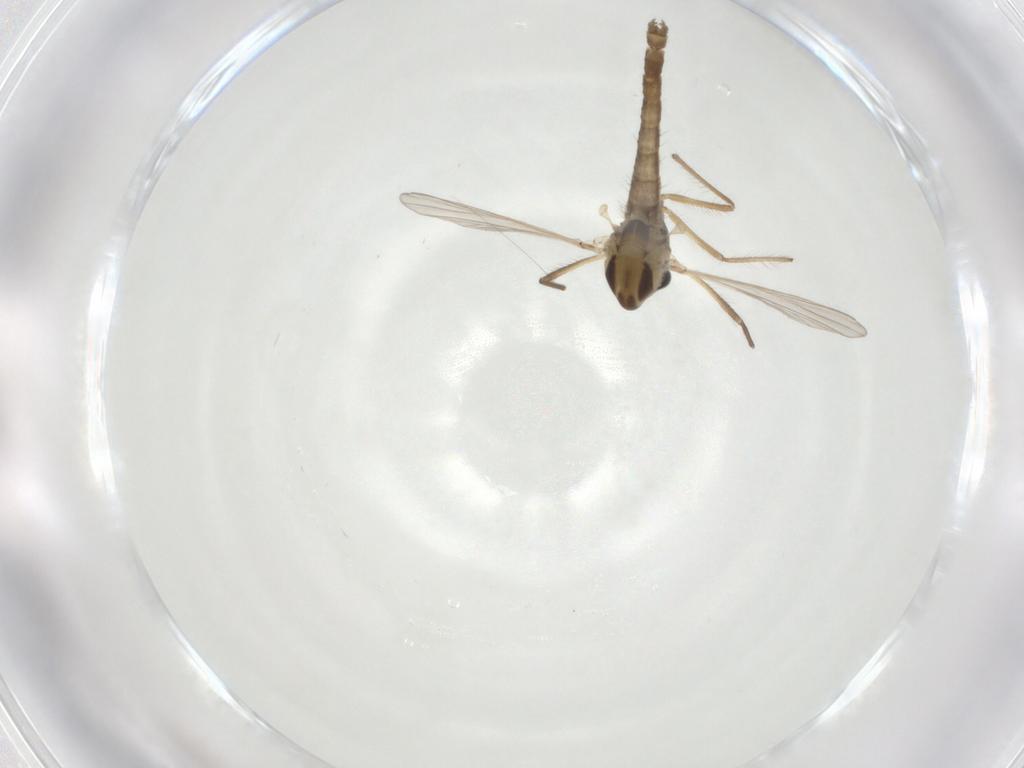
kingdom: Animalia
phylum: Arthropoda
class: Insecta
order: Diptera
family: Chironomidae
